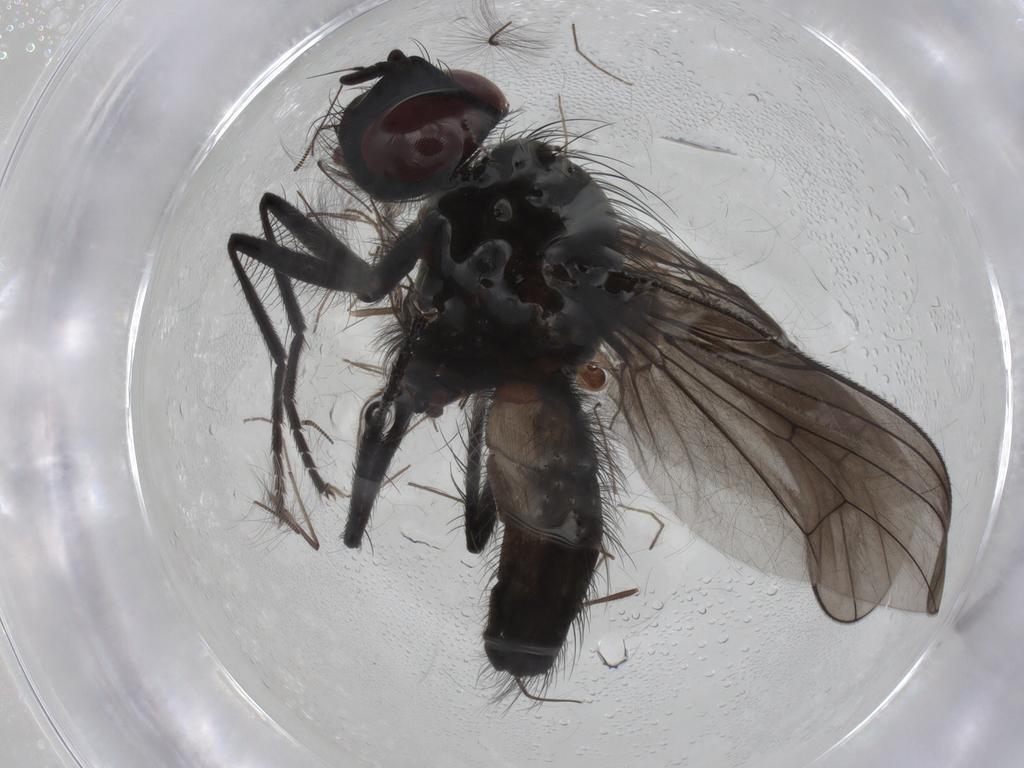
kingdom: Animalia
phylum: Arthropoda
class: Insecta
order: Diptera
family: Anthomyiidae
